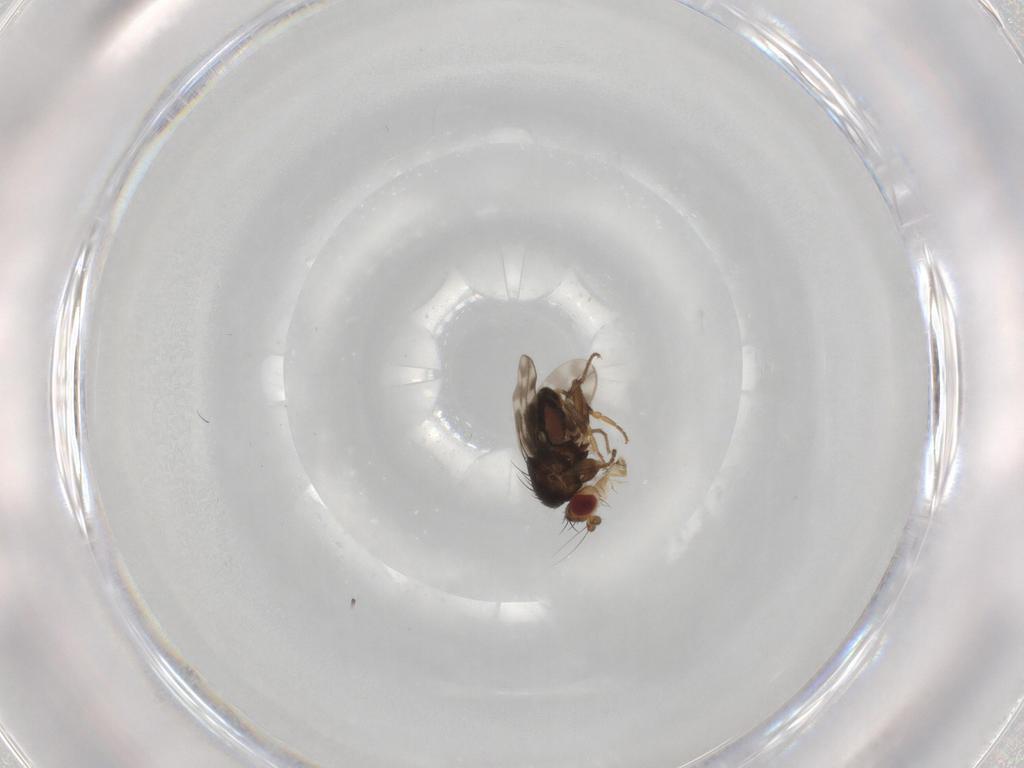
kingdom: Animalia
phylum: Arthropoda
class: Insecta
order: Diptera
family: Sphaeroceridae
